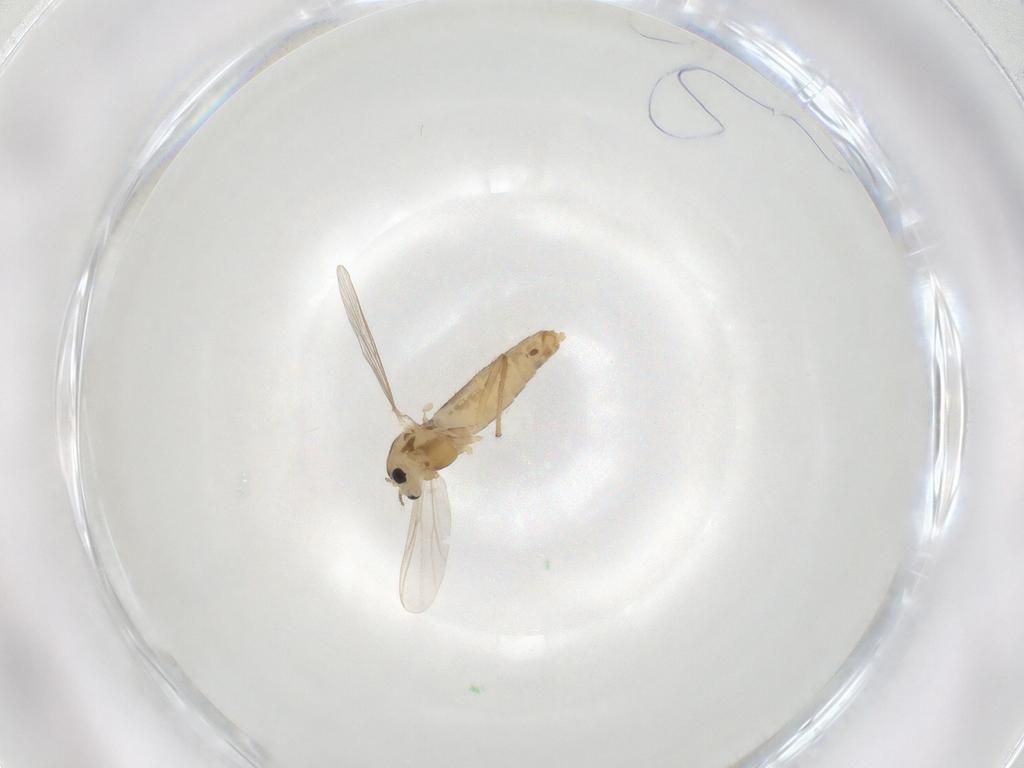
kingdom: Animalia
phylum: Arthropoda
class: Insecta
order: Diptera
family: Chironomidae
